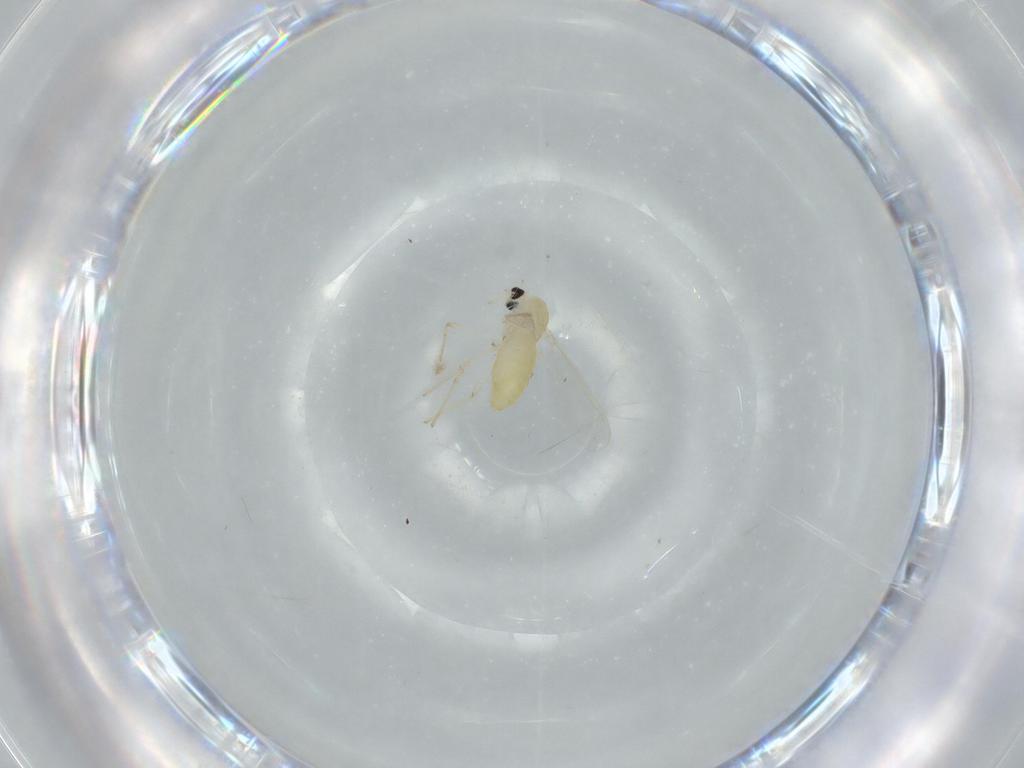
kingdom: Animalia
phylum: Arthropoda
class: Insecta
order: Diptera
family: Chironomidae
